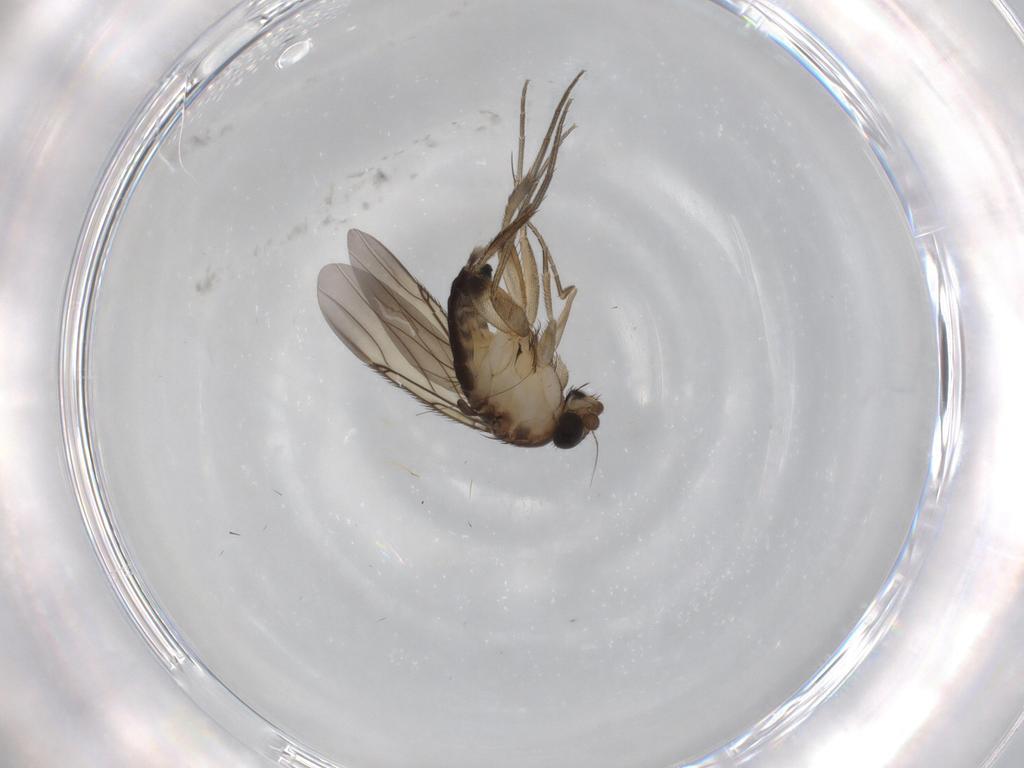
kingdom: Animalia
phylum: Arthropoda
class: Insecta
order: Diptera
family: Phoridae
